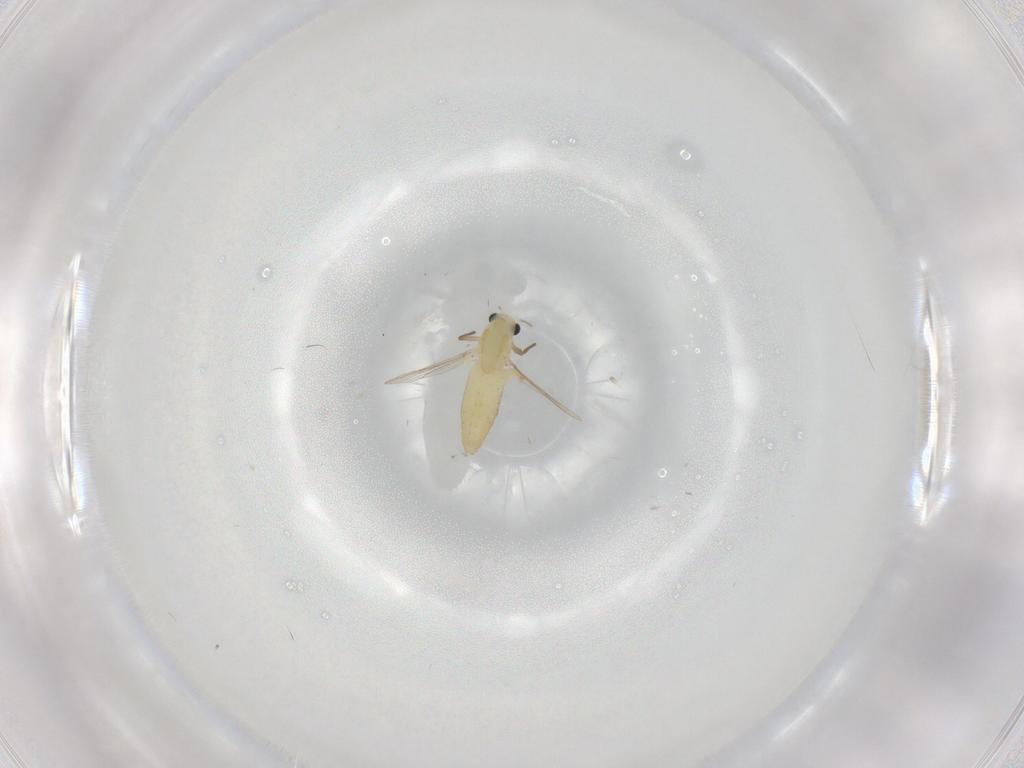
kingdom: Animalia
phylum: Arthropoda
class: Insecta
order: Diptera
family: Chironomidae
